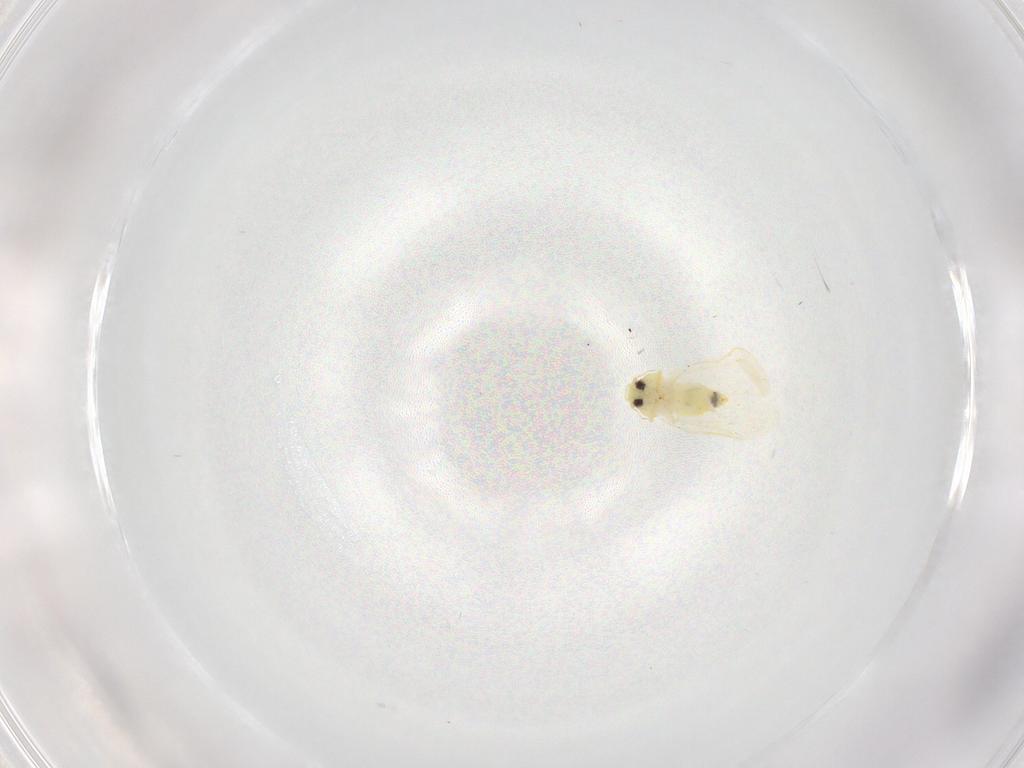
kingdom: Animalia
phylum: Arthropoda
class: Insecta
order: Hemiptera
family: Aleyrodidae
